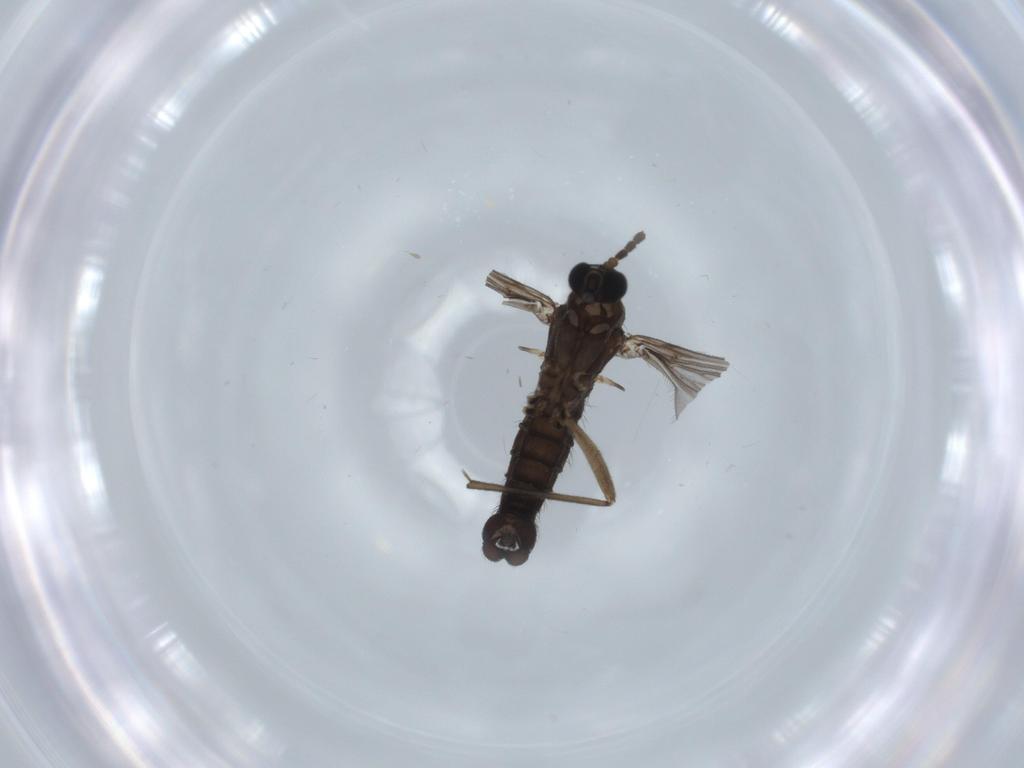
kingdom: Animalia
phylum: Arthropoda
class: Insecta
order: Diptera
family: Sciaridae
